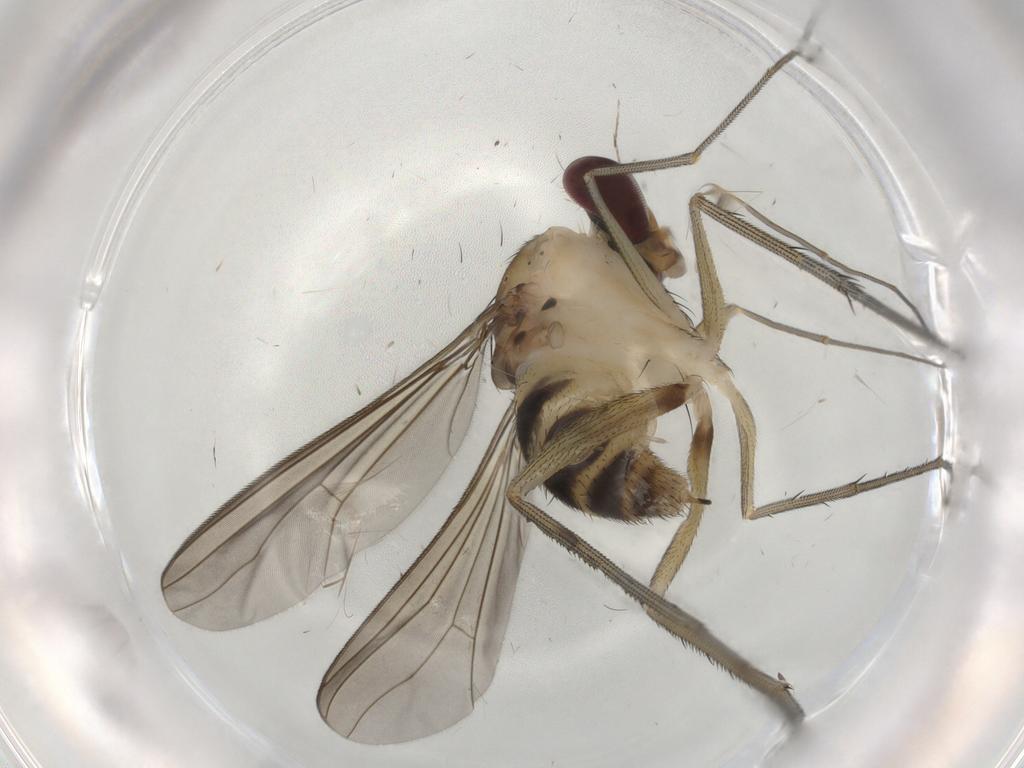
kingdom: Animalia
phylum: Arthropoda
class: Insecta
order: Diptera
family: Dolichopodidae
